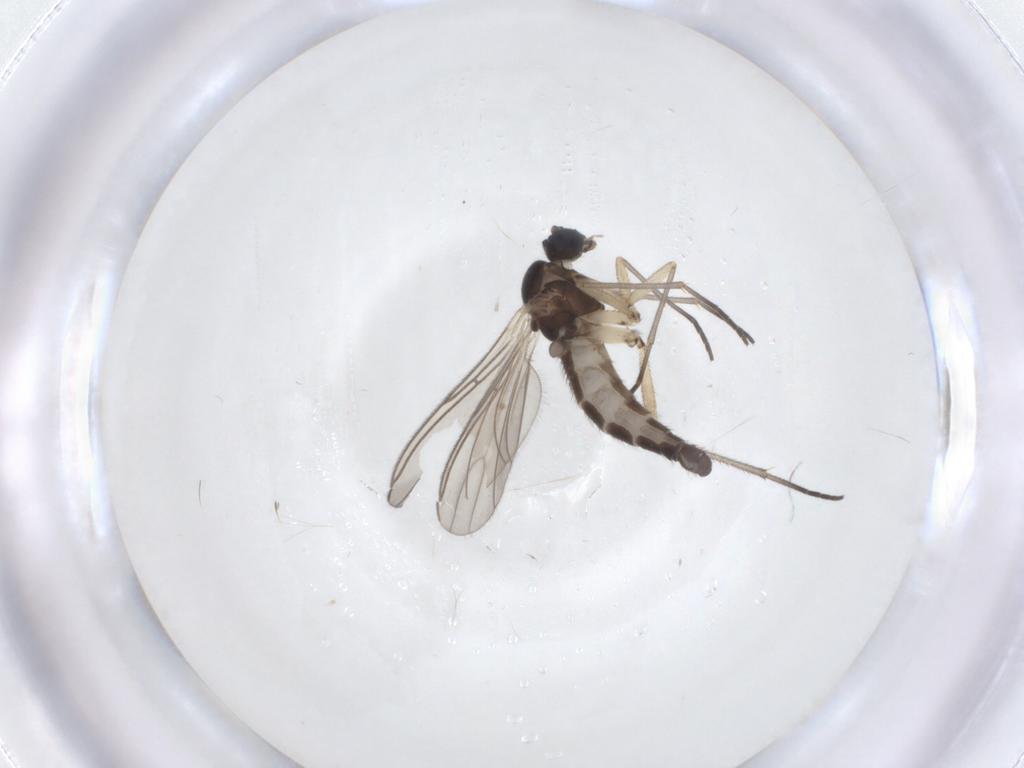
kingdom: Animalia
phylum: Arthropoda
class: Insecta
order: Diptera
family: Sciaridae
